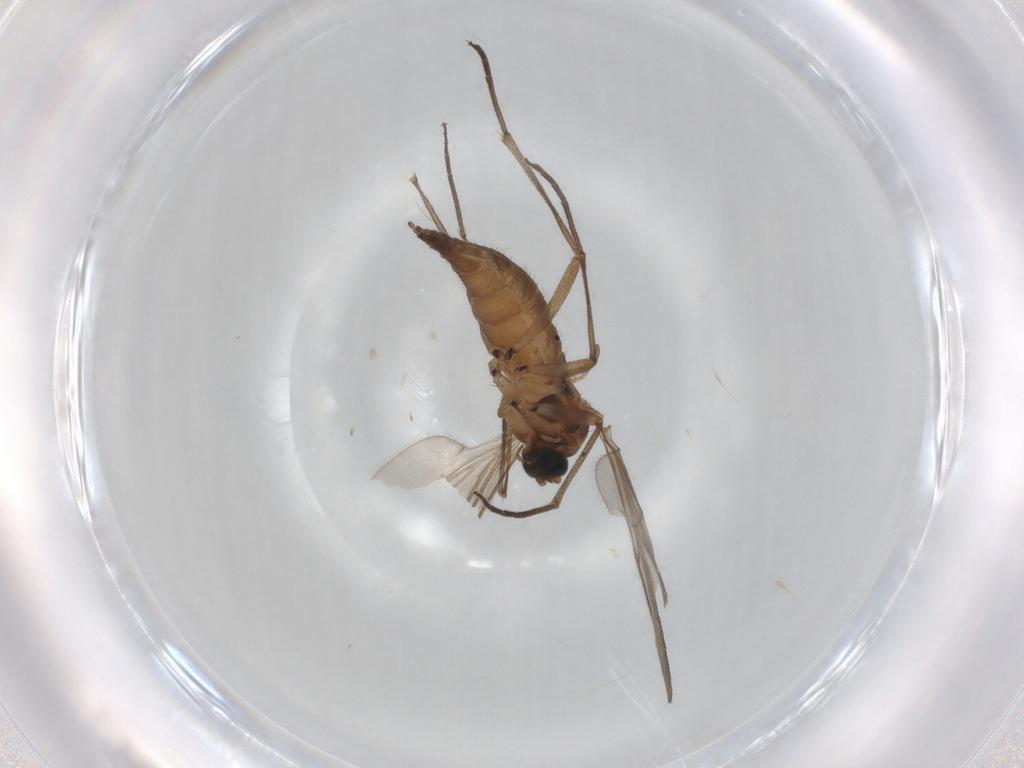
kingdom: Animalia
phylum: Arthropoda
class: Insecta
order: Diptera
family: Sciaridae
